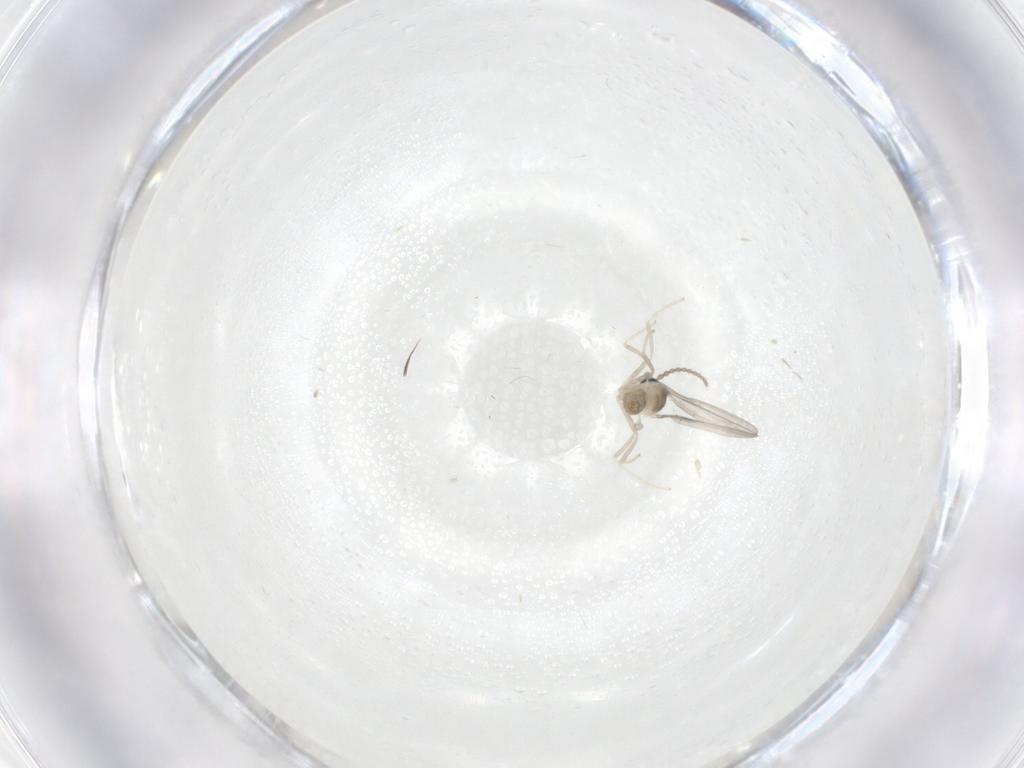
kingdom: Animalia
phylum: Arthropoda
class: Insecta
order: Diptera
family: Cecidomyiidae
